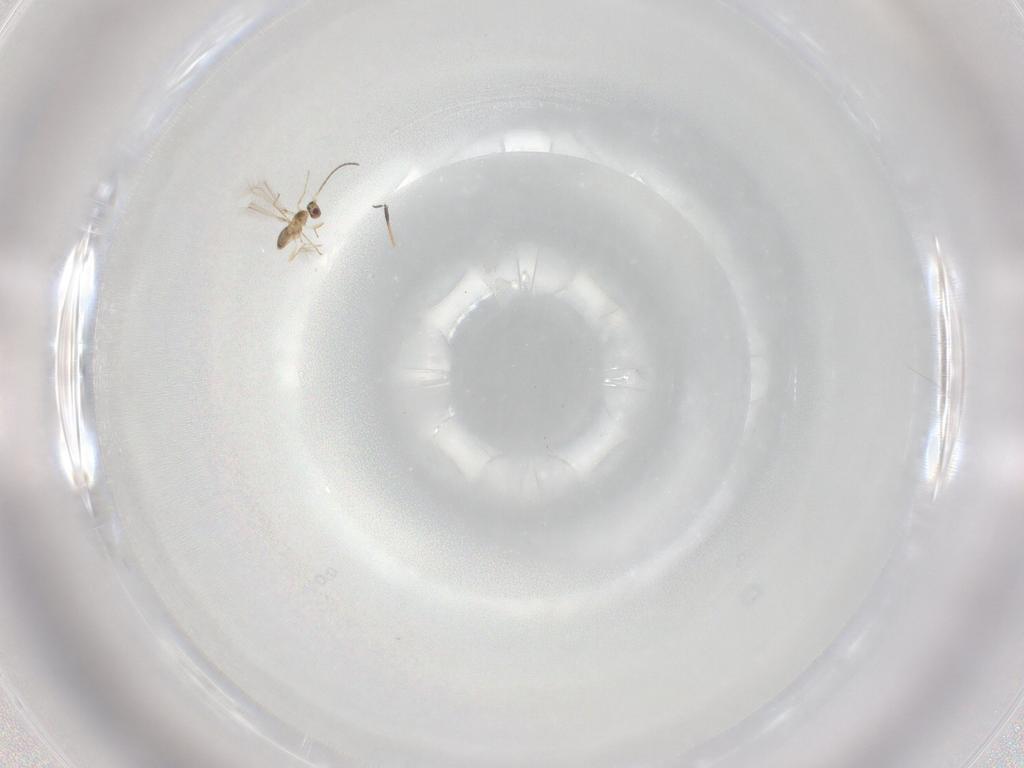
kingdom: Animalia
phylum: Arthropoda
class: Insecta
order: Hymenoptera
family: Mymaridae
